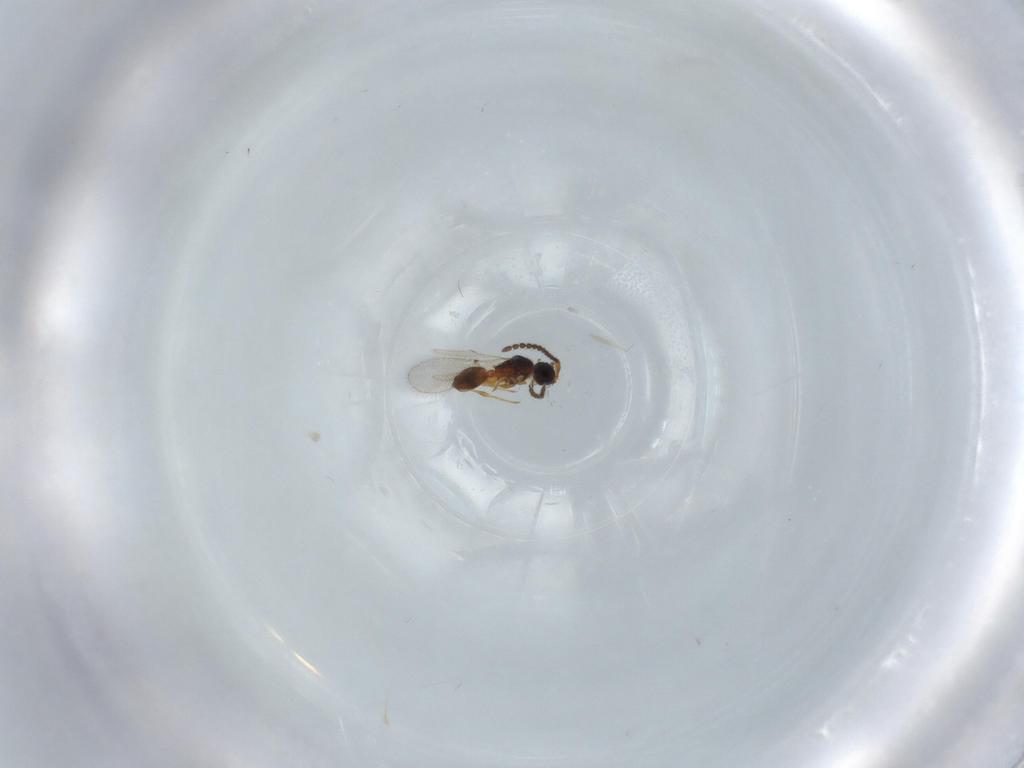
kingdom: Animalia
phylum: Arthropoda
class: Insecta
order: Hymenoptera
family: Diapriidae
